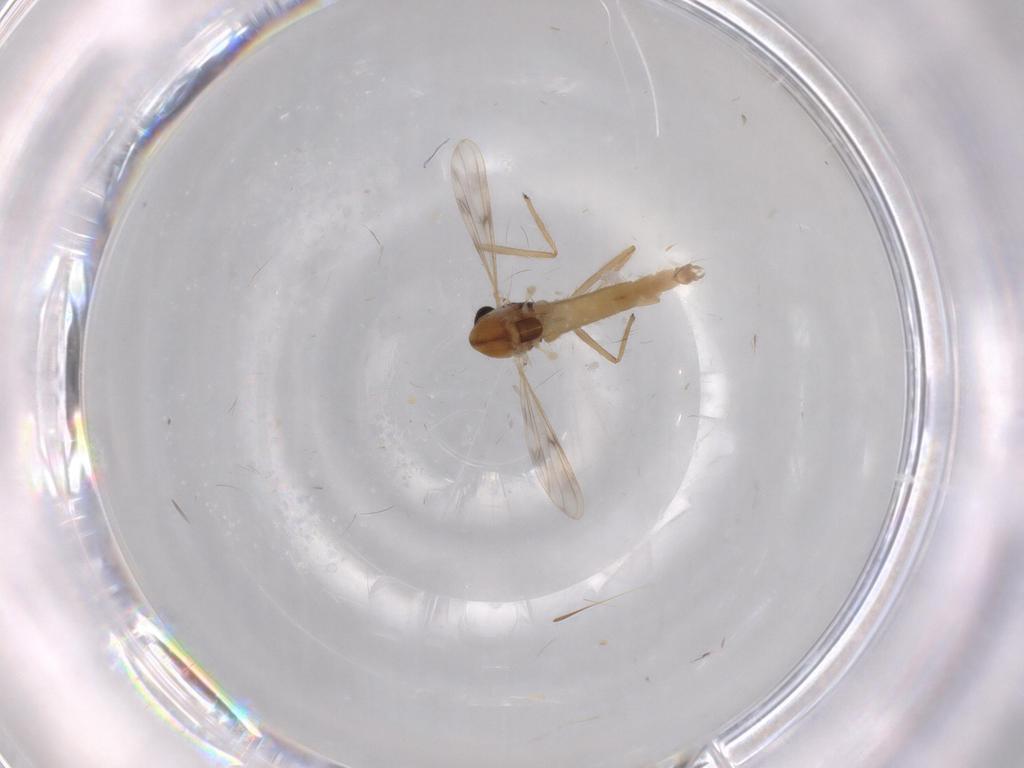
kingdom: Animalia
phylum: Arthropoda
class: Insecta
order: Diptera
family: Chironomidae
